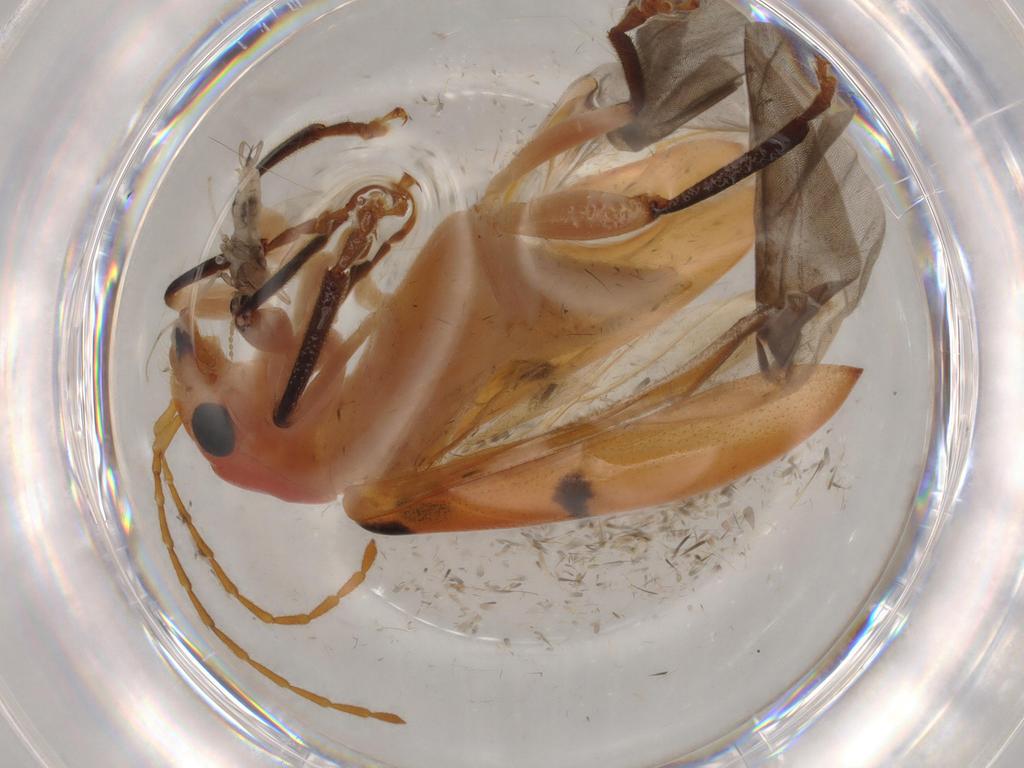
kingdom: Animalia
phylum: Arthropoda
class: Insecta
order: Coleoptera
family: Chrysomelidae
